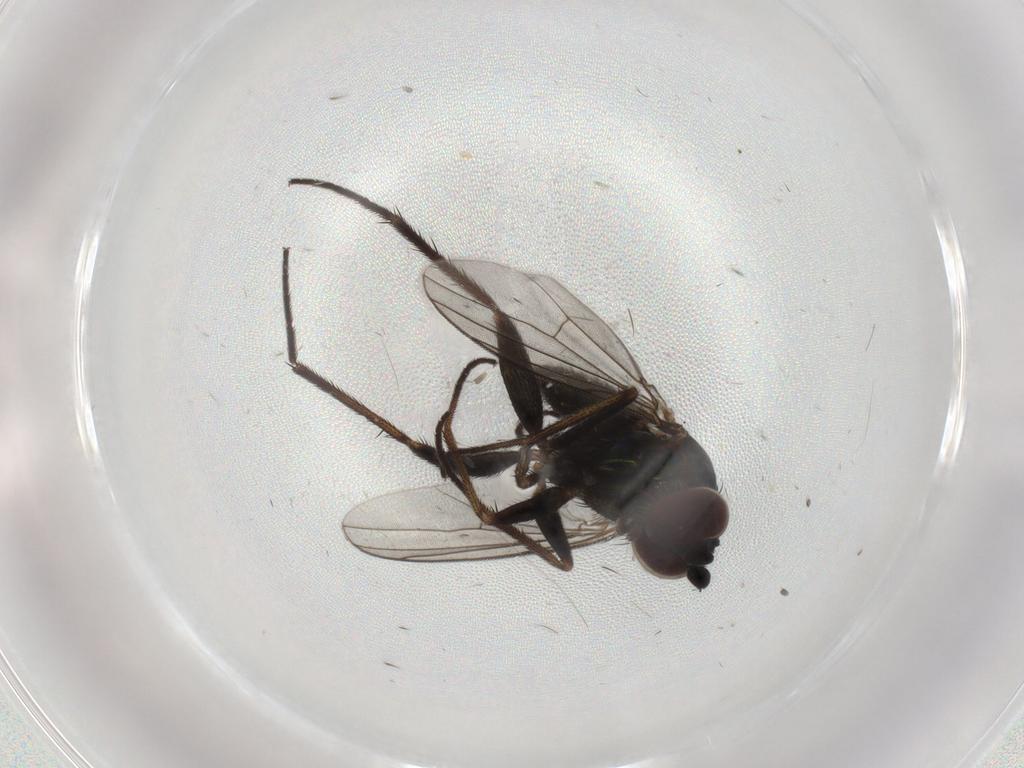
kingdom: Animalia
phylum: Arthropoda
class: Insecta
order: Diptera
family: Dolichopodidae
